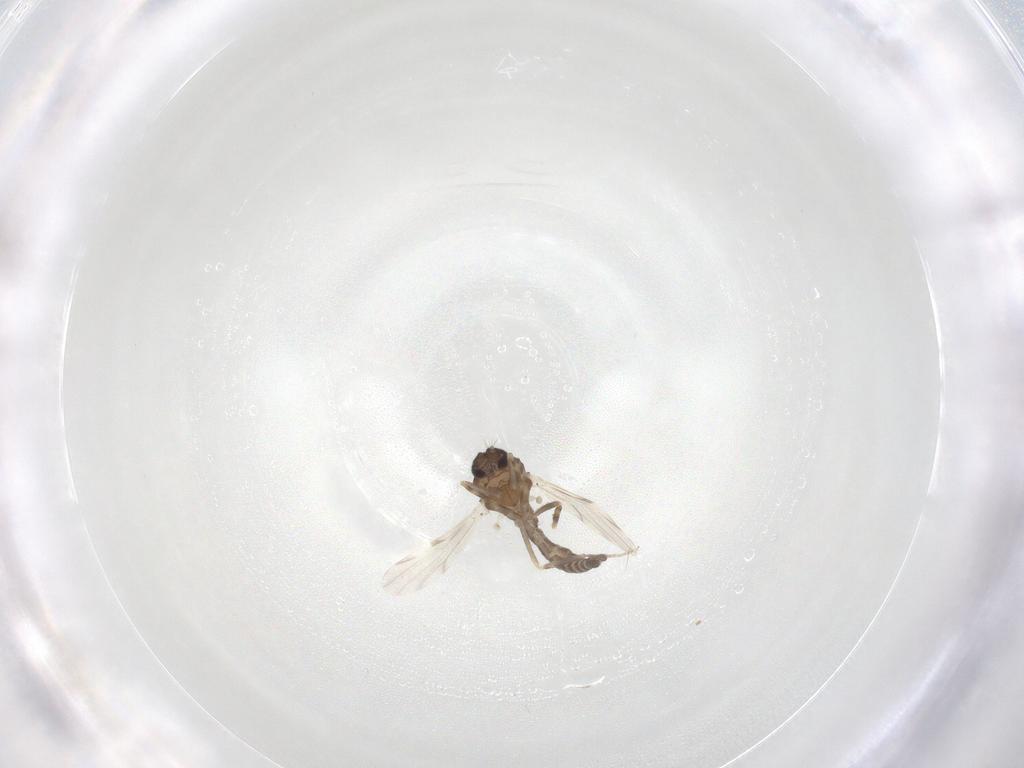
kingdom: Animalia
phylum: Arthropoda
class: Insecta
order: Diptera
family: Ceratopogonidae
